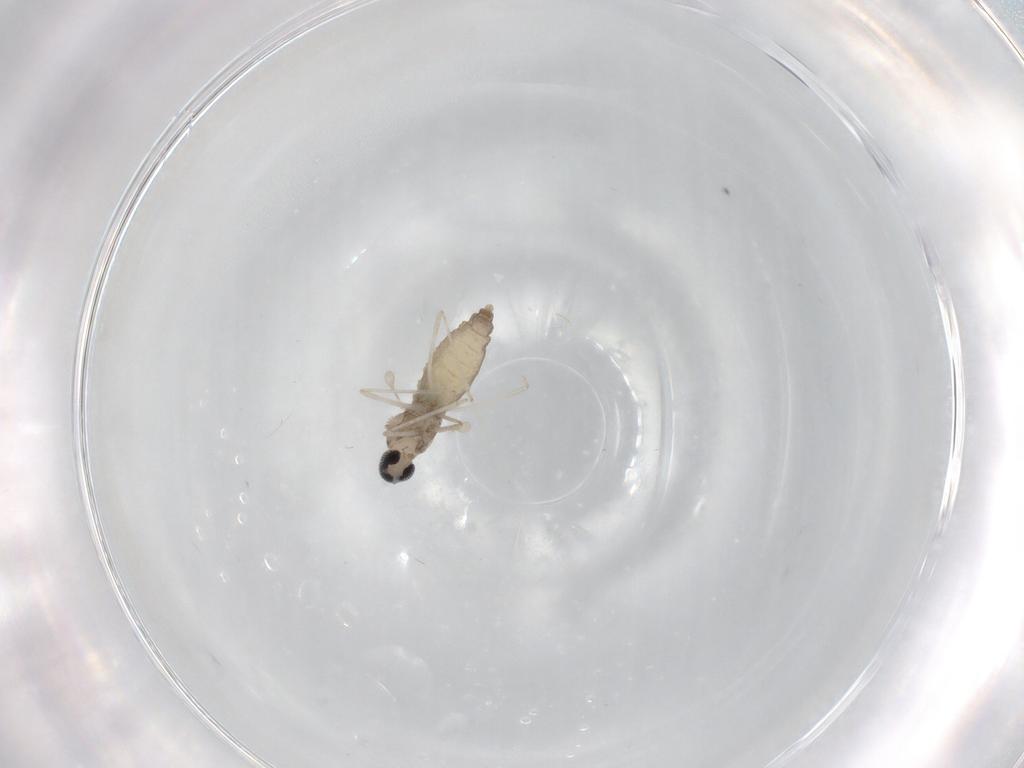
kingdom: Animalia
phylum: Arthropoda
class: Insecta
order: Diptera
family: Cecidomyiidae
